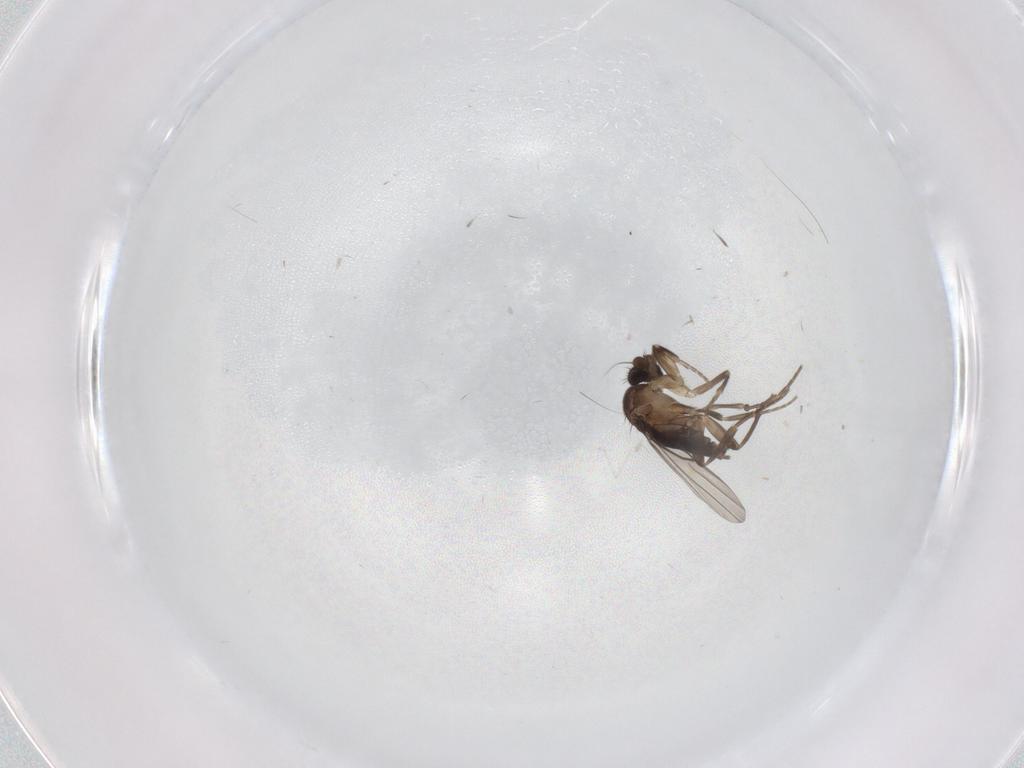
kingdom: Animalia
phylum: Arthropoda
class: Insecta
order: Diptera
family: Cecidomyiidae
